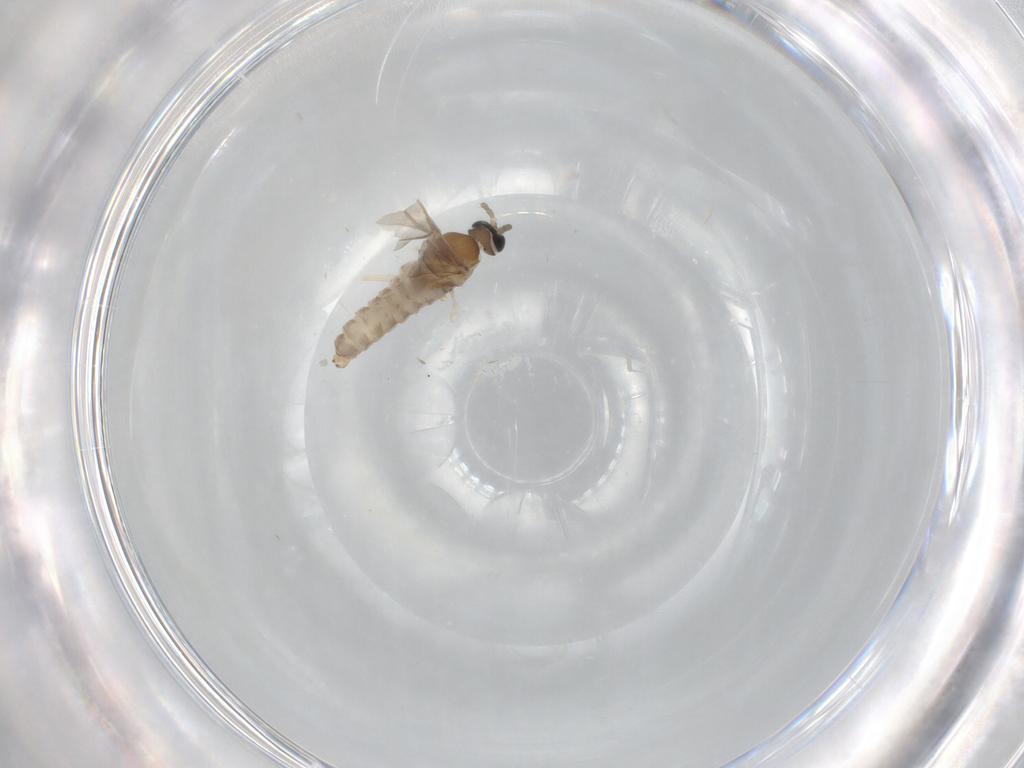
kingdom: Animalia
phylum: Arthropoda
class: Insecta
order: Diptera
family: Cecidomyiidae
